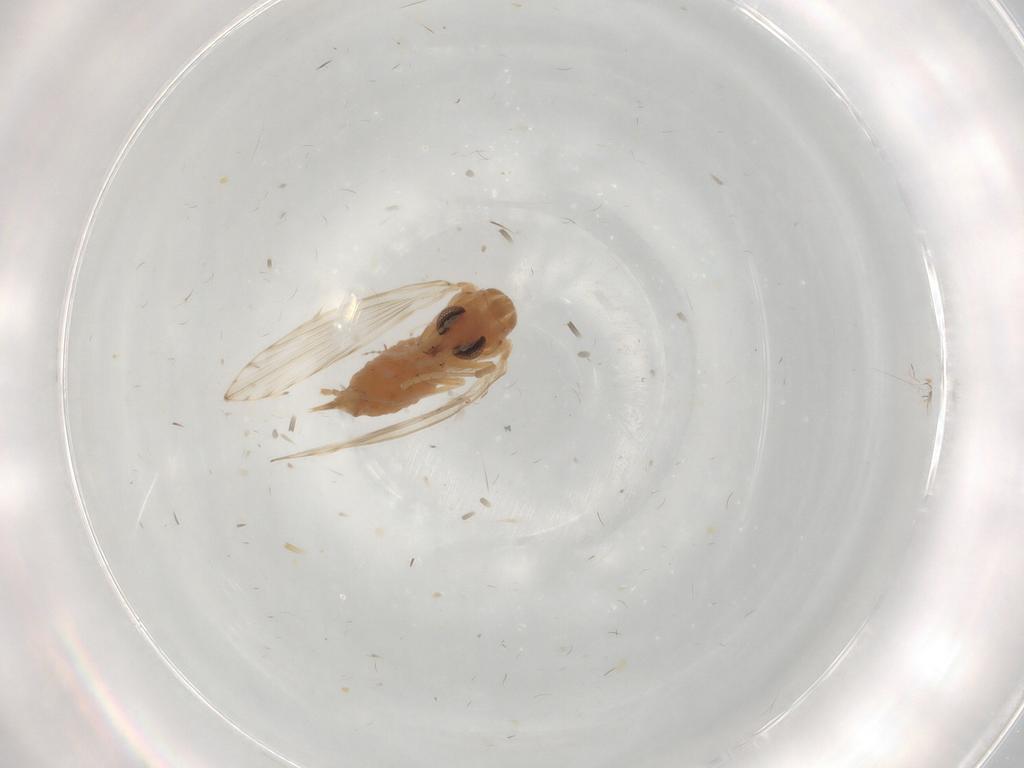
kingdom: Animalia
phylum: Arthropoda
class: Insecta
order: Diptera
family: Psychodidae
